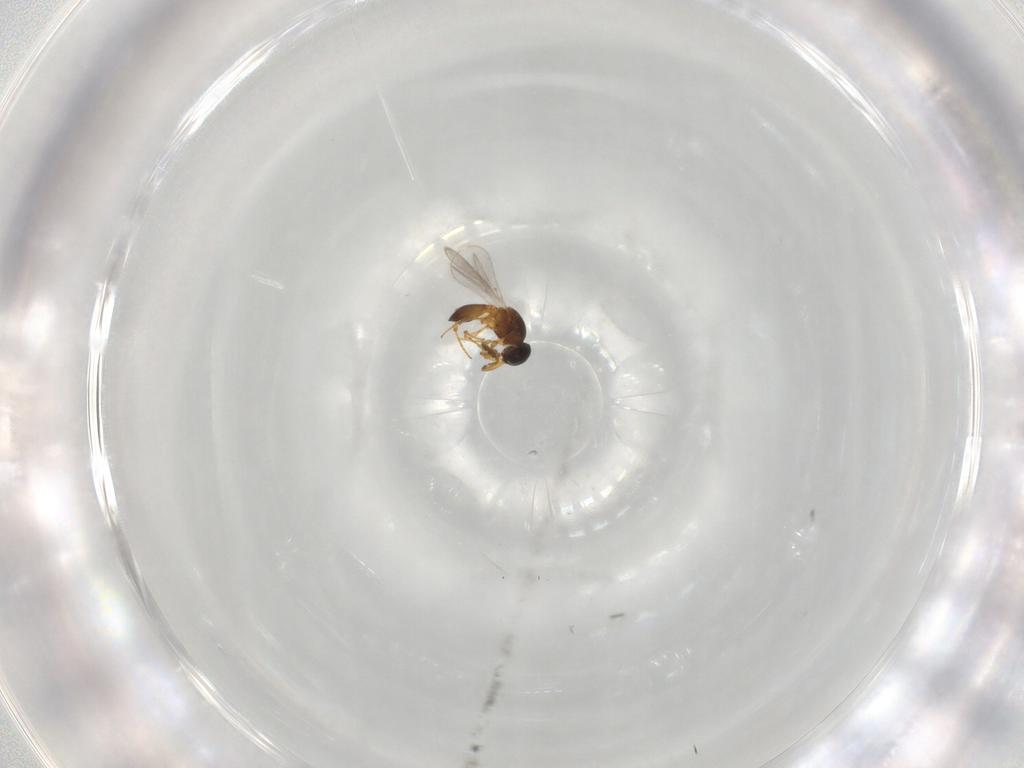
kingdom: Animalia
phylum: Arthropoda
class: Insecta
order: Hymenoptera
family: Platygastridae
